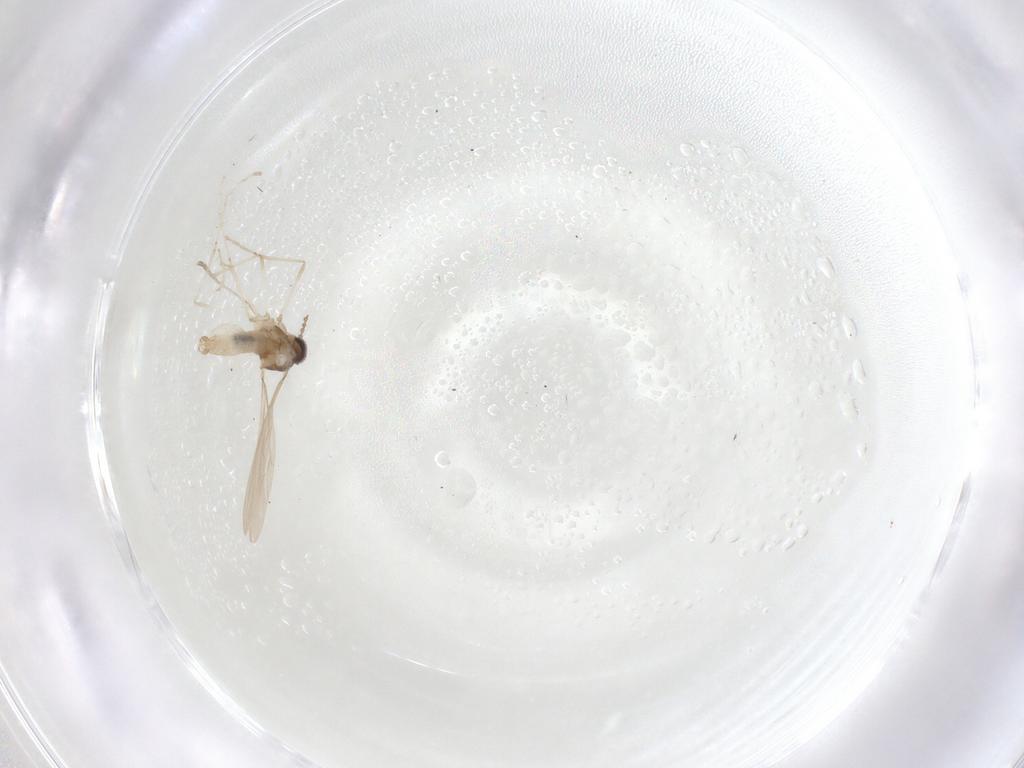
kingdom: Animalia
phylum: Arthropoda
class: Insecta
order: Diptera
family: Cecidomyiidae
